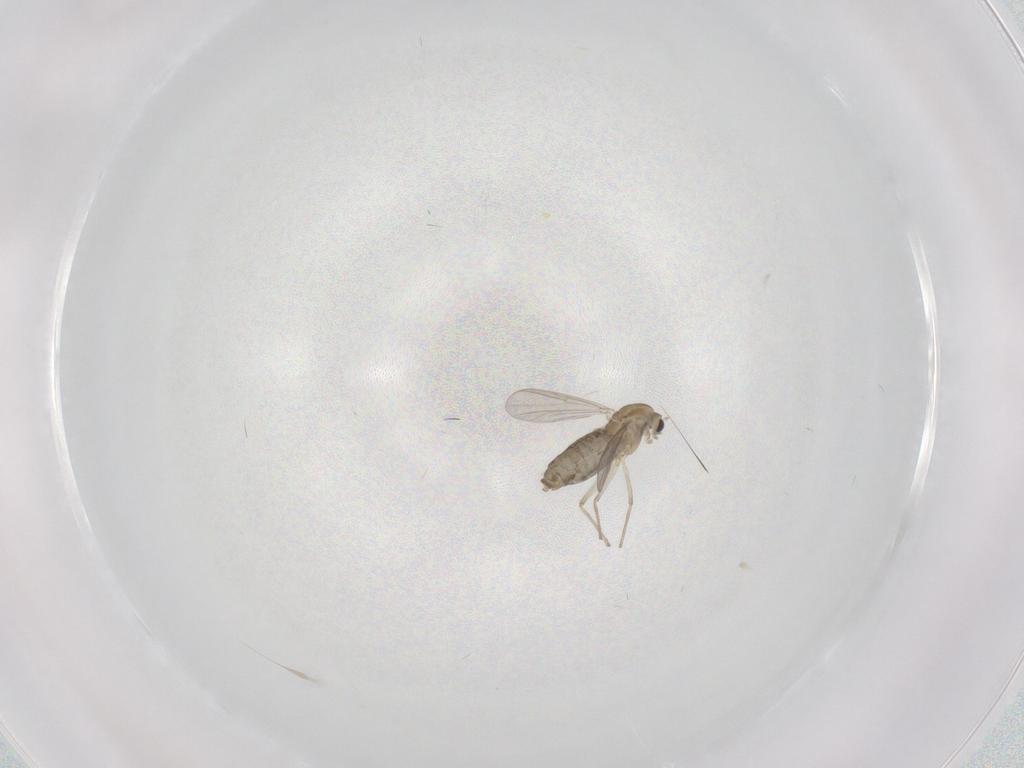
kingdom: Animalia
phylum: Arthropoda
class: Insecta
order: Diptera
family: Chironomidae
